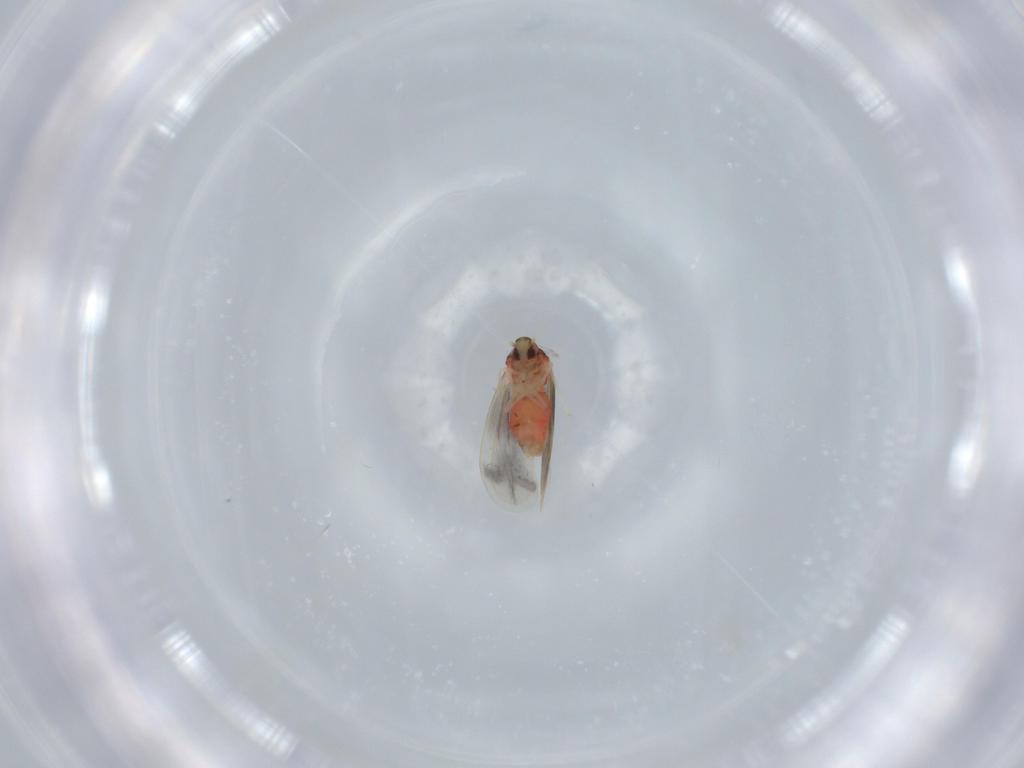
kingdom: Animalia
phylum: Arthropoda
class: Insecta
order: Hemiptera
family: Aleyrodidae
